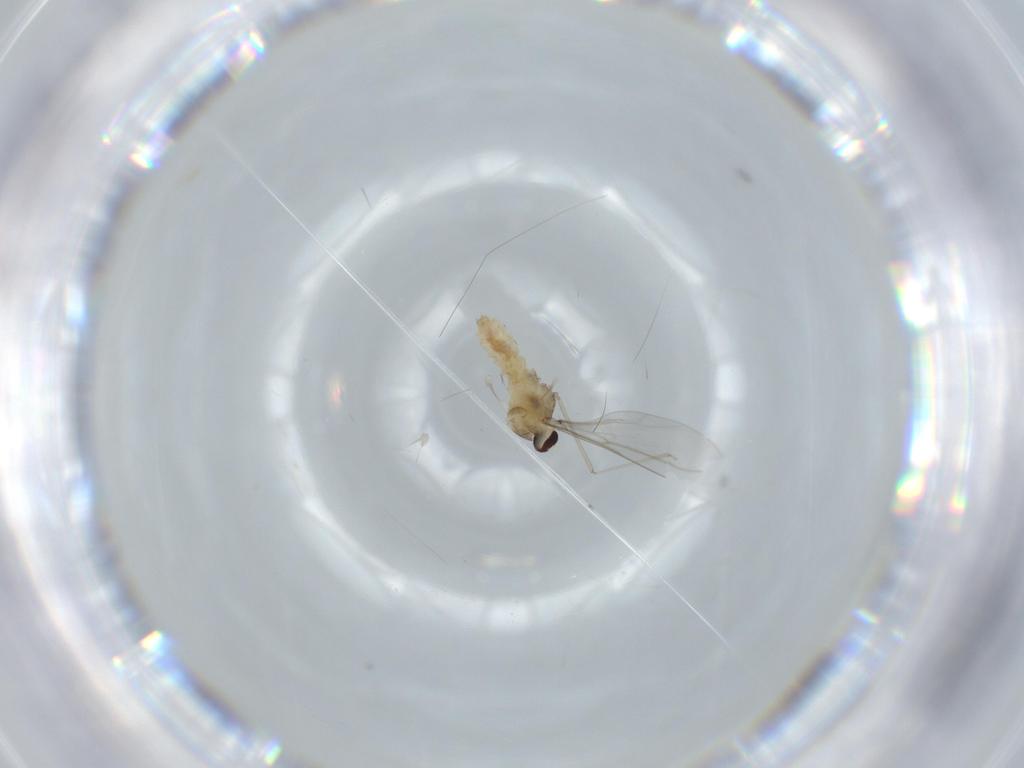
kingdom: Animalia
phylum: Arthropoda
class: Insecta
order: Diptera
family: Cecidomyiidae
